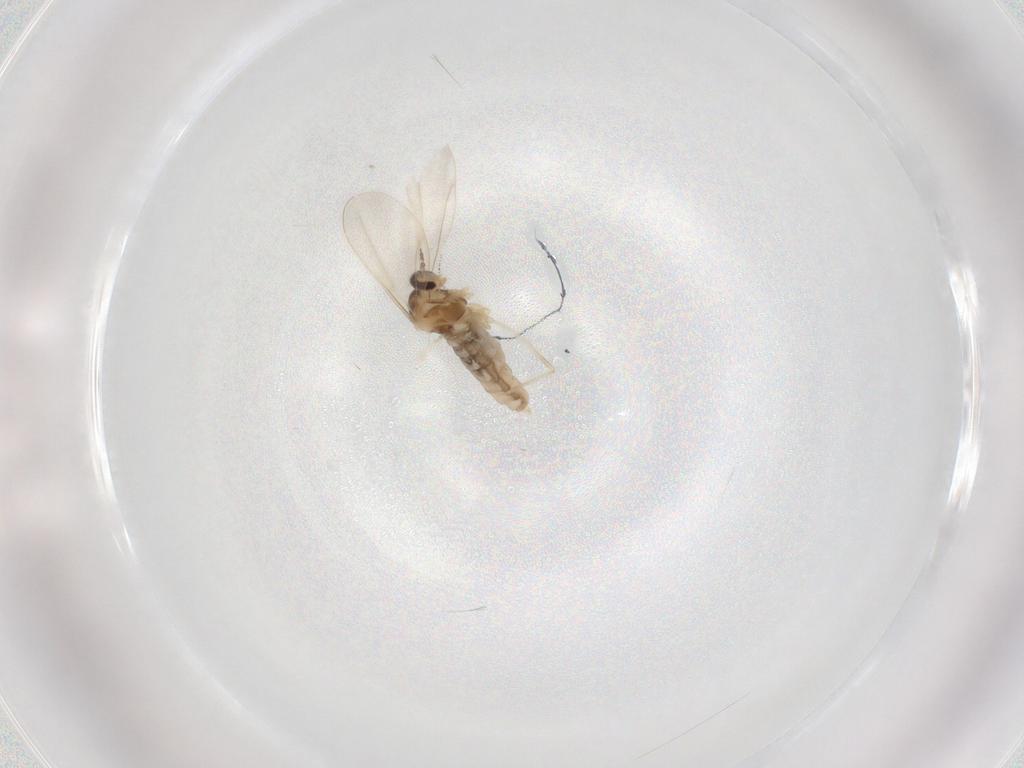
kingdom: Animalia
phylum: Arthropoda
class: Insecta
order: Diptera
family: Cecidomyiidae
